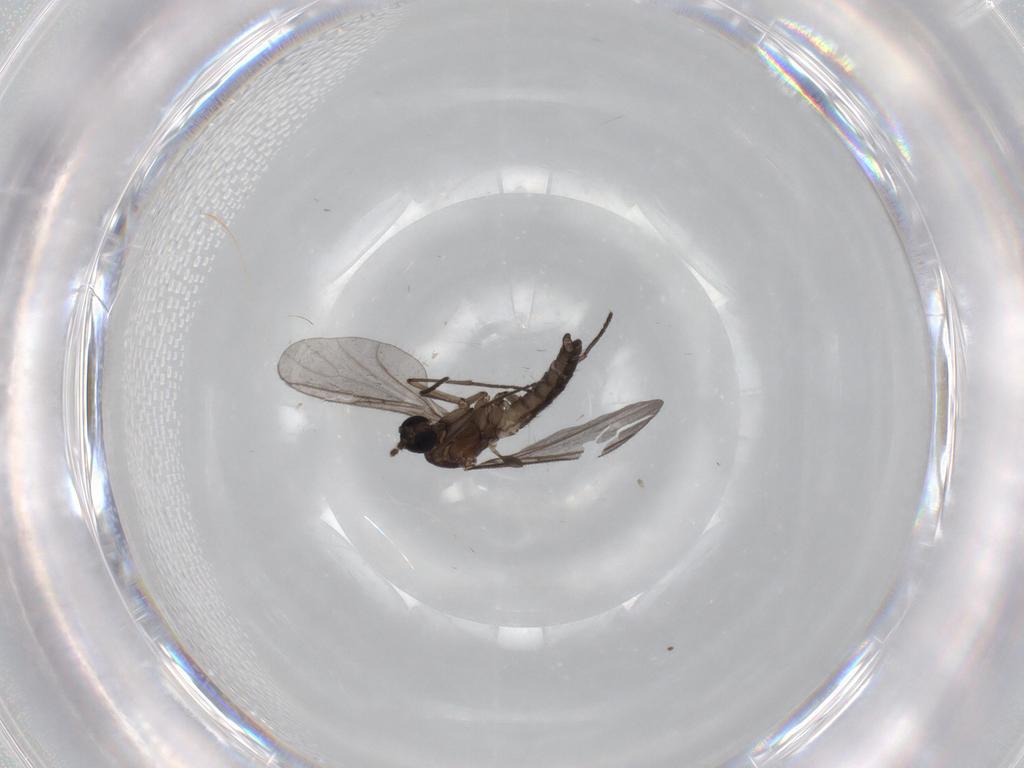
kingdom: Animalia
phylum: Arthropoda
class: Insecta
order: Diptera
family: Sciaridae
